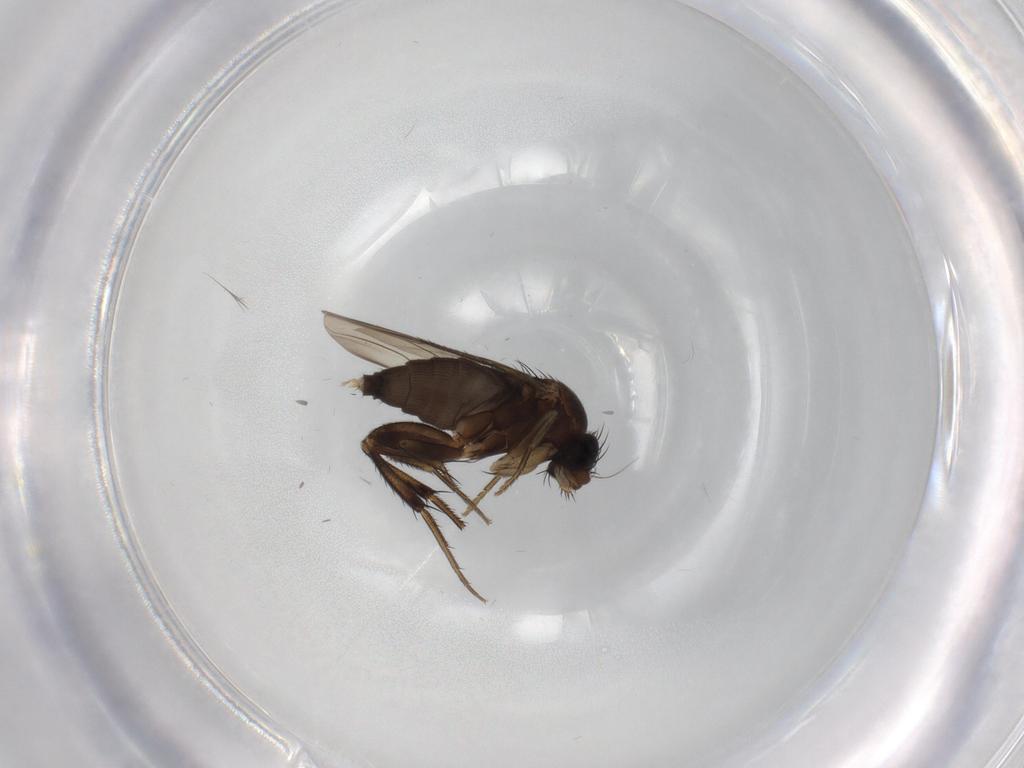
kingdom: Animalia
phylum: Arthropoda
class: Insecta
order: Diptera
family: Phoridae
